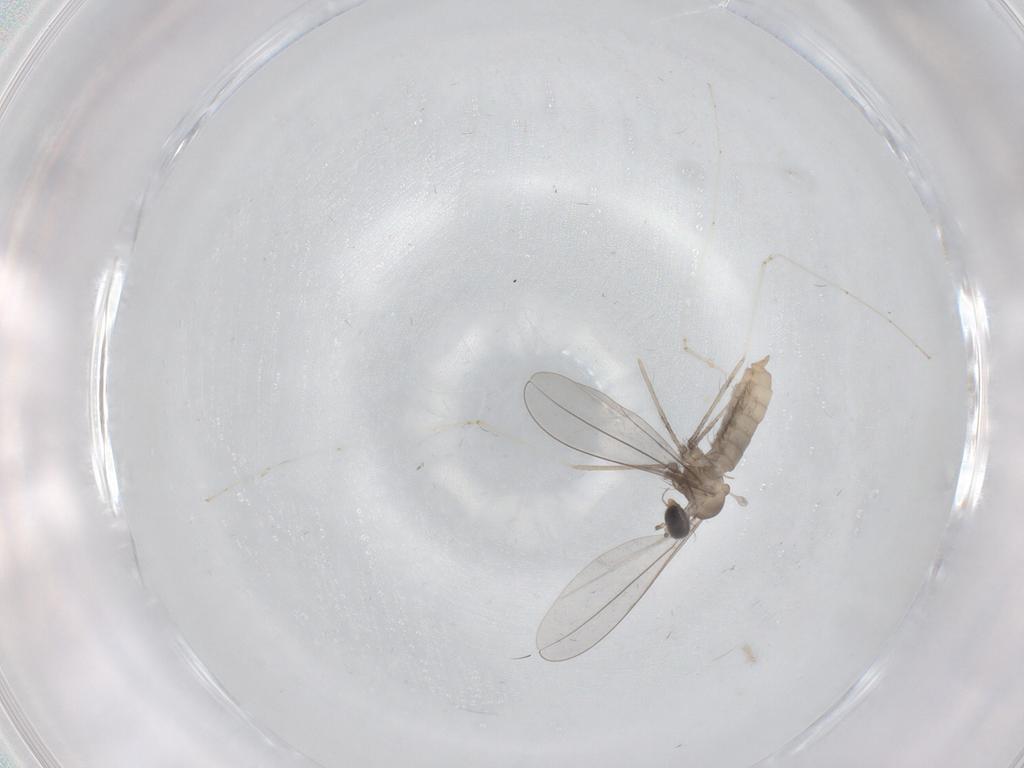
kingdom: Animalia
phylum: Arthropoda
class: Insecta
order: Diptera
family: Cecidomyiidae
